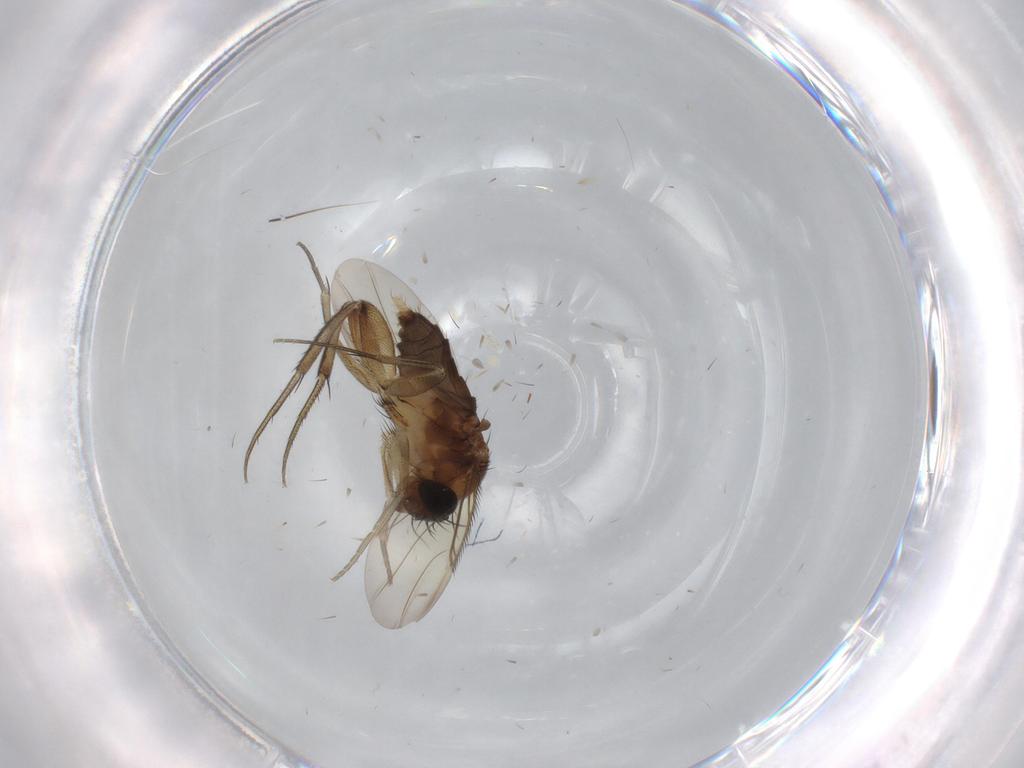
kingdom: Animalia
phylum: Arthropoda
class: Insecta
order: Diptera
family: Phoridae
